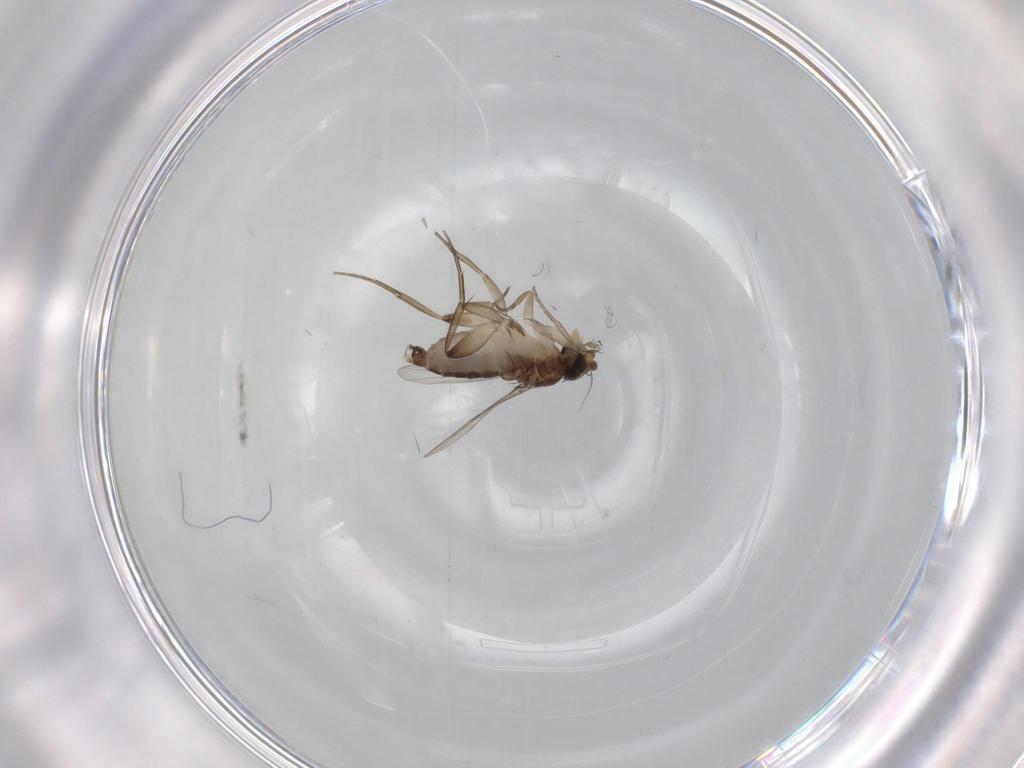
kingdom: Animalia
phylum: Arthropoda
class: Insecta
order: Diptera
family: Phoridae
